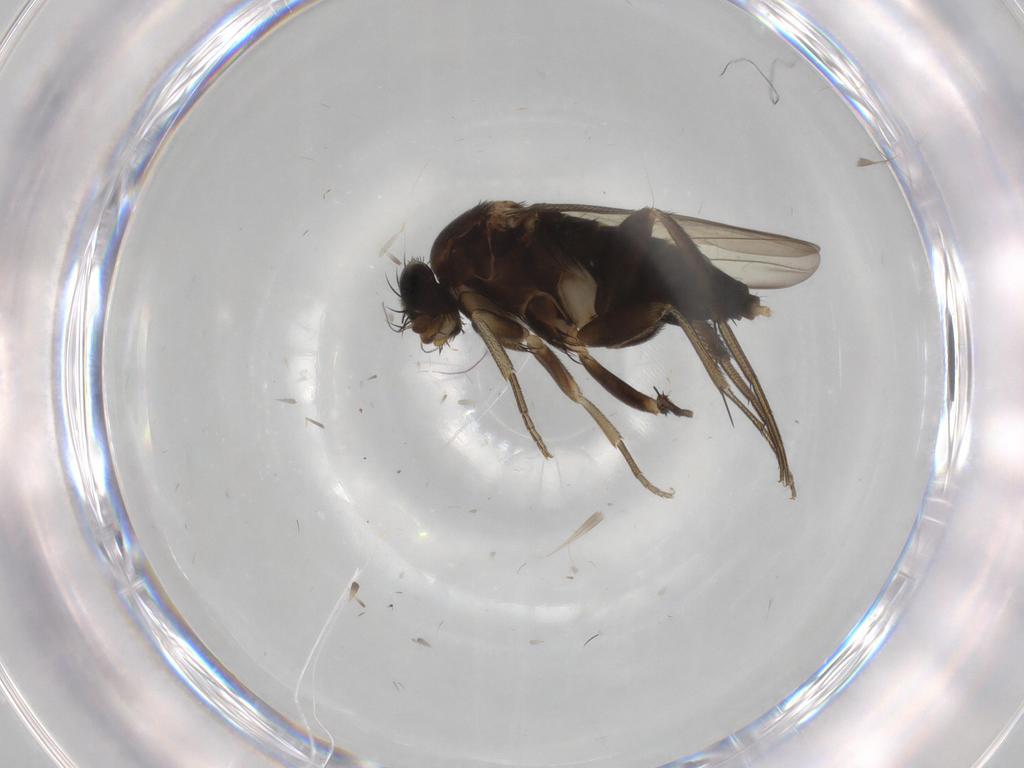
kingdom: Animalia
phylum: Arthropoda
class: Insecta
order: Diptera
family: Phoridae
